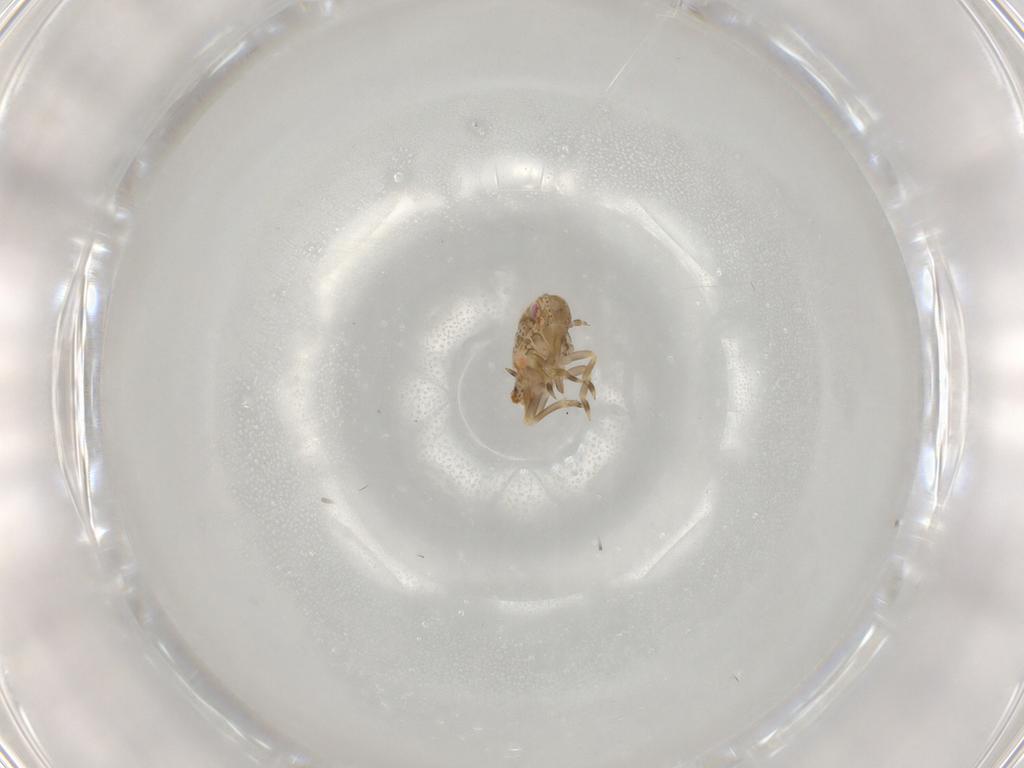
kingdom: Animalia
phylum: Arthropoda
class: Insecta
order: Hemiptera
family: Flatidae
